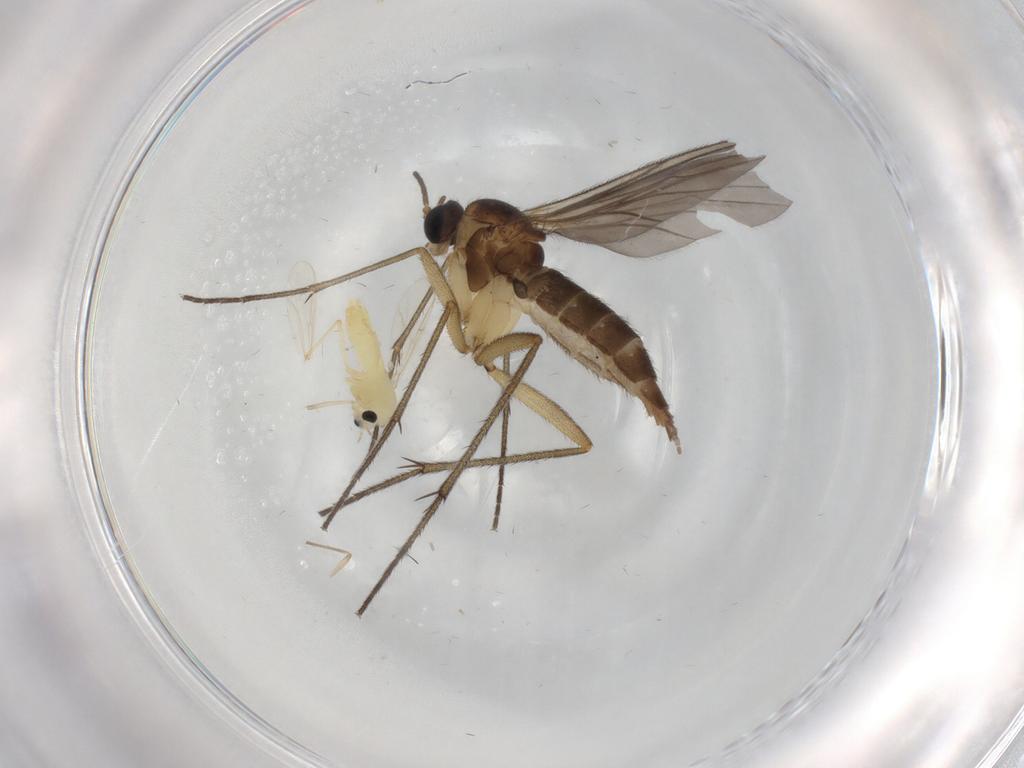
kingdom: Animalia
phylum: Arthropoda
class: Insecta
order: Diptera
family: Sciaridae
